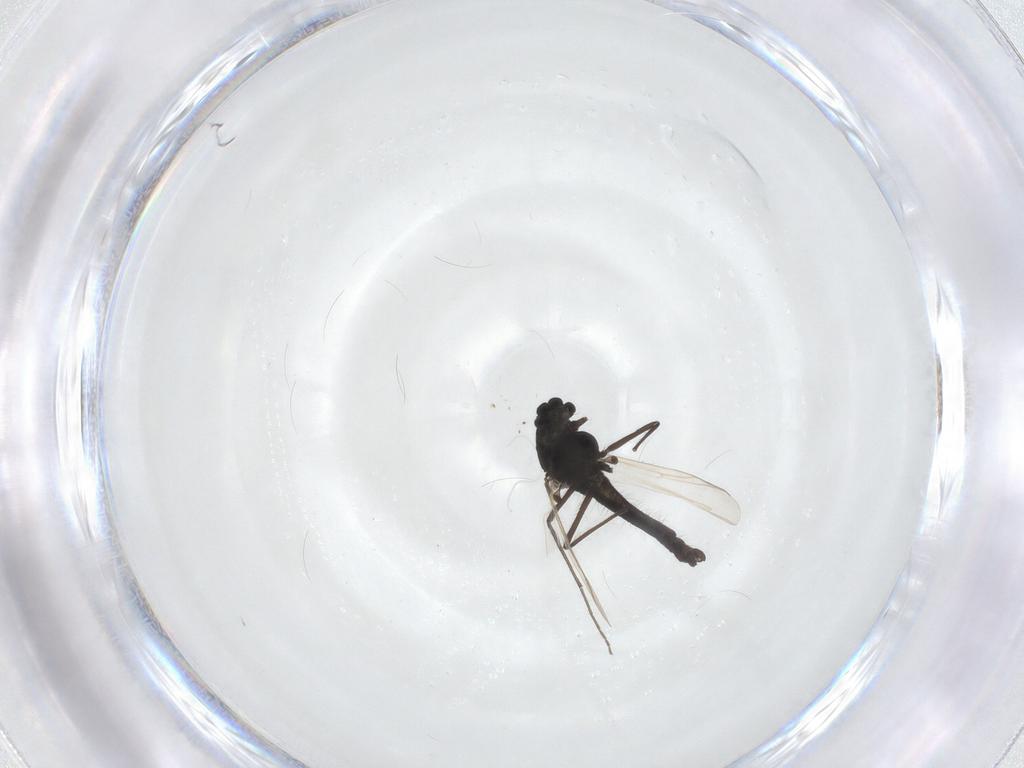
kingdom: Animalia
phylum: Arthropoda
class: Insecta
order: Diptera
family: Chironomidae
